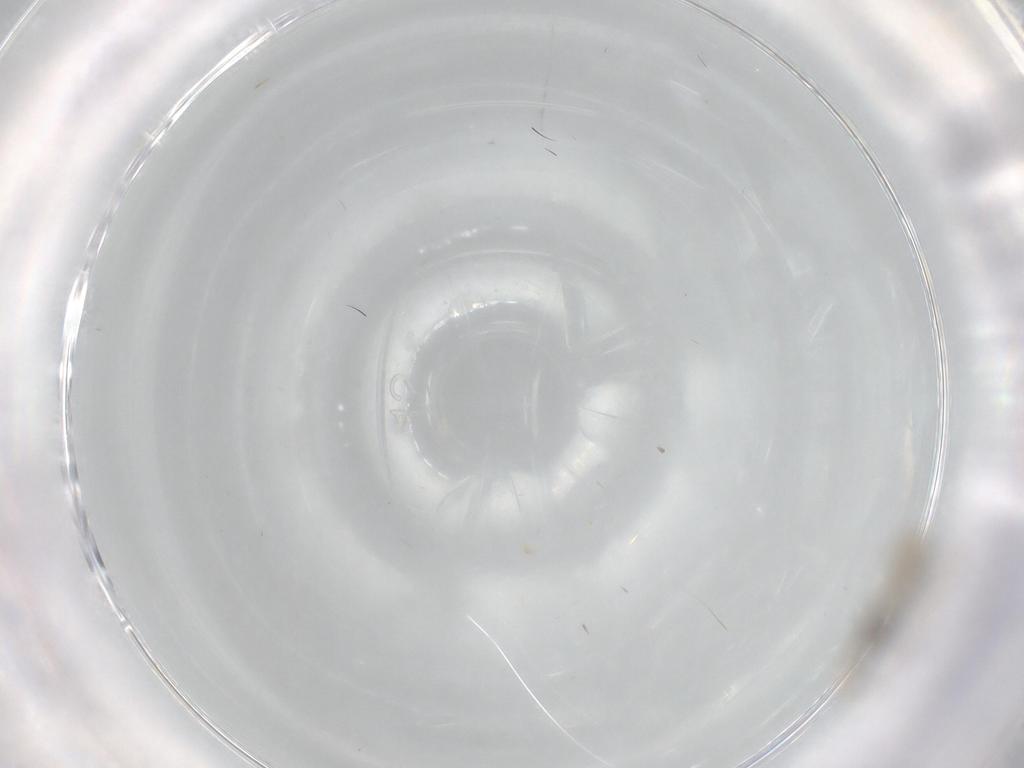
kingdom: Animalia
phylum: Arthropoda
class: Insecta
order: Diptera
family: Cecidomyiidae
